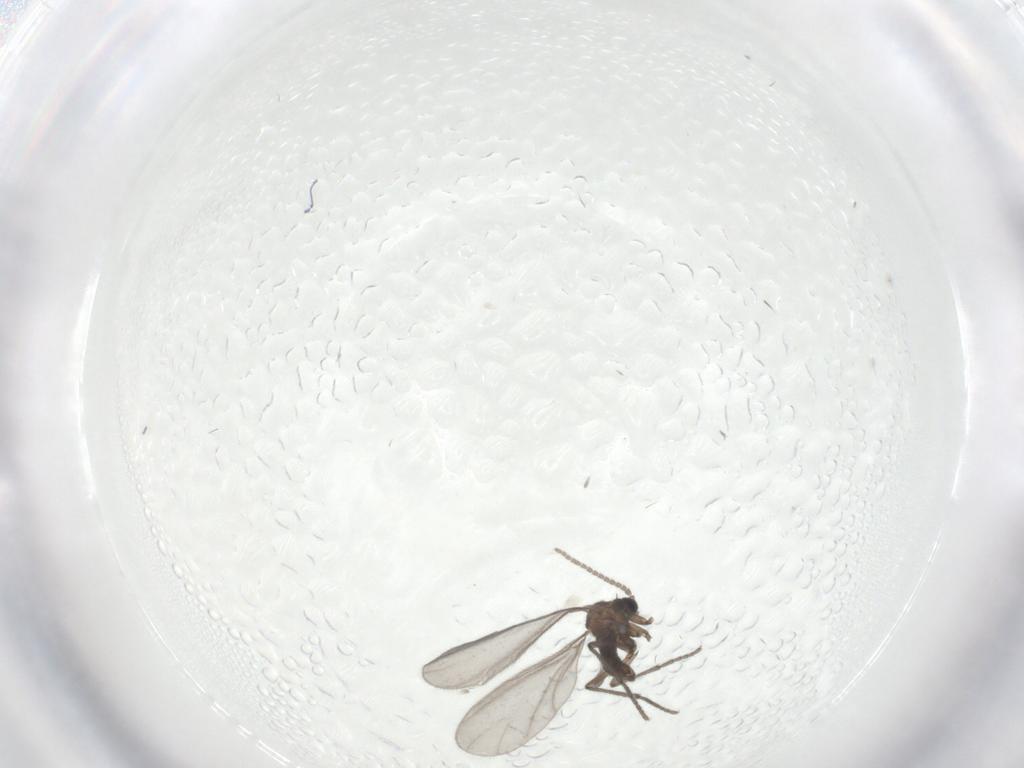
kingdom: Animalia
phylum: Arthropoda
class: Insecta
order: Diptera
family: Sciaridae
